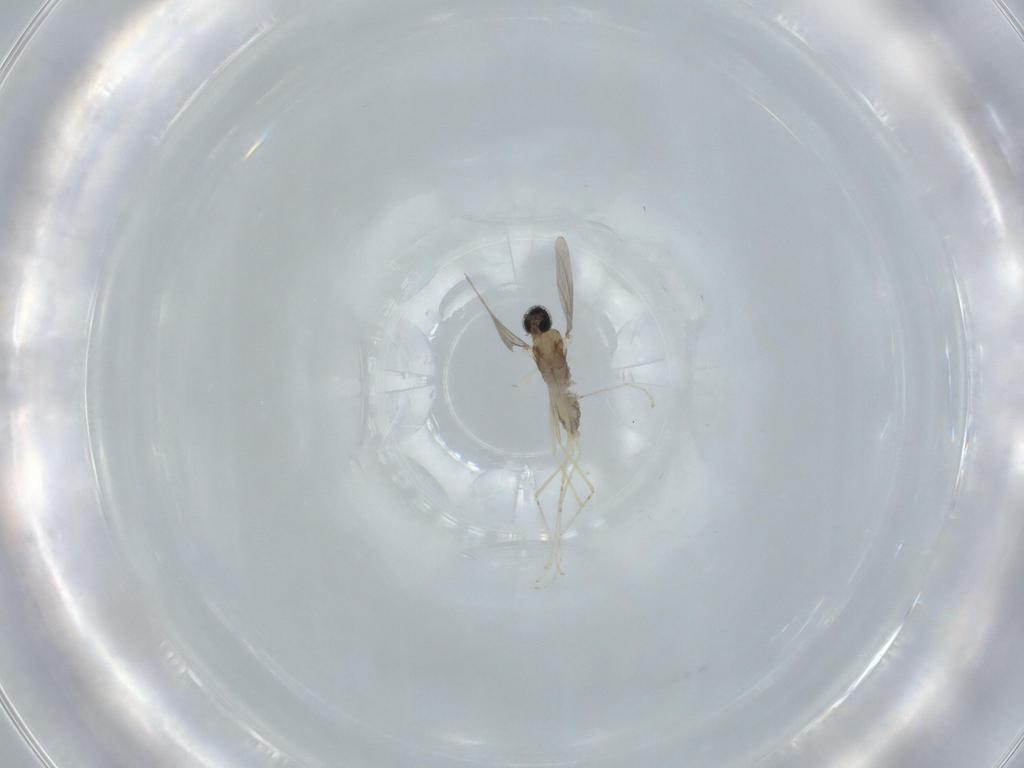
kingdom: Animalia
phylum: Arthropoda
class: Insecta
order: Diptera
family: Cecidomyiidae
